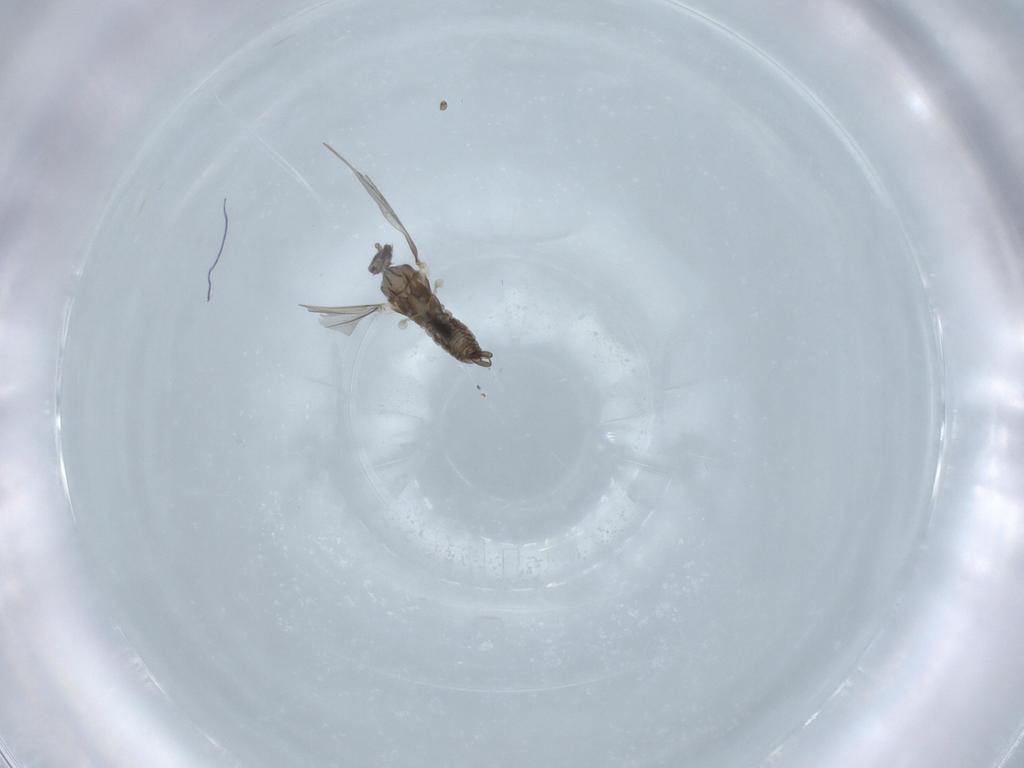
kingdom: Animalia
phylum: Arthropoda
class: Insecta
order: Diptera
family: Cecidomyiidae
